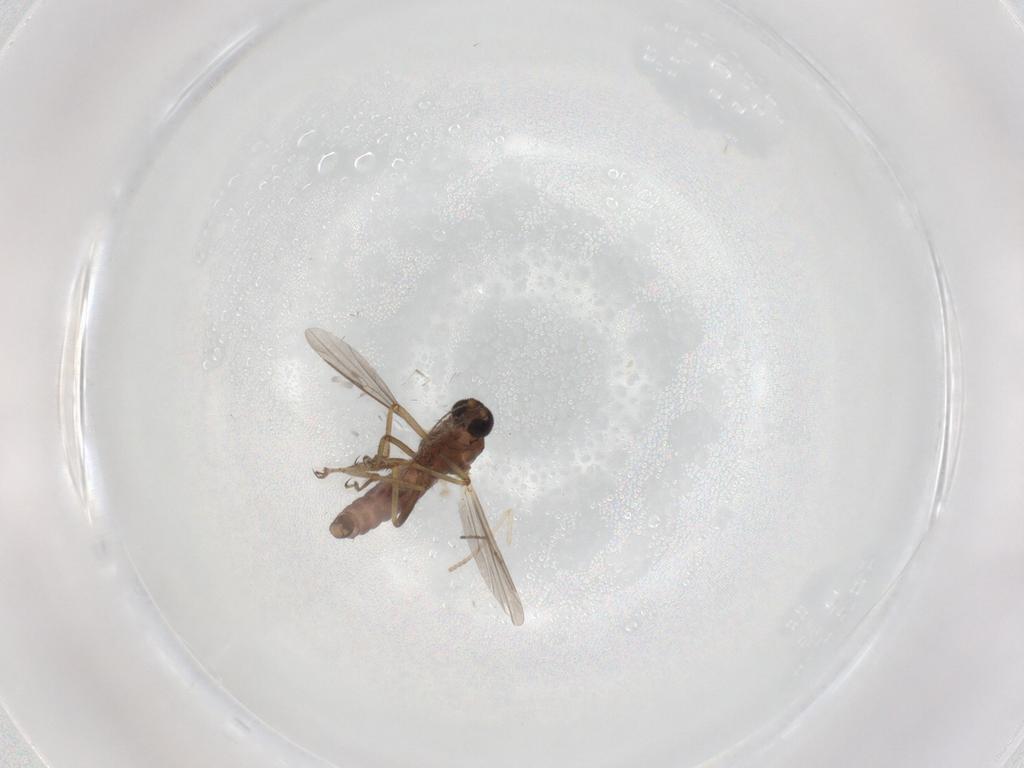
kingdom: Animalia
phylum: Arthropoda
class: Insecta
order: Diptera
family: Ceratopogonidae
